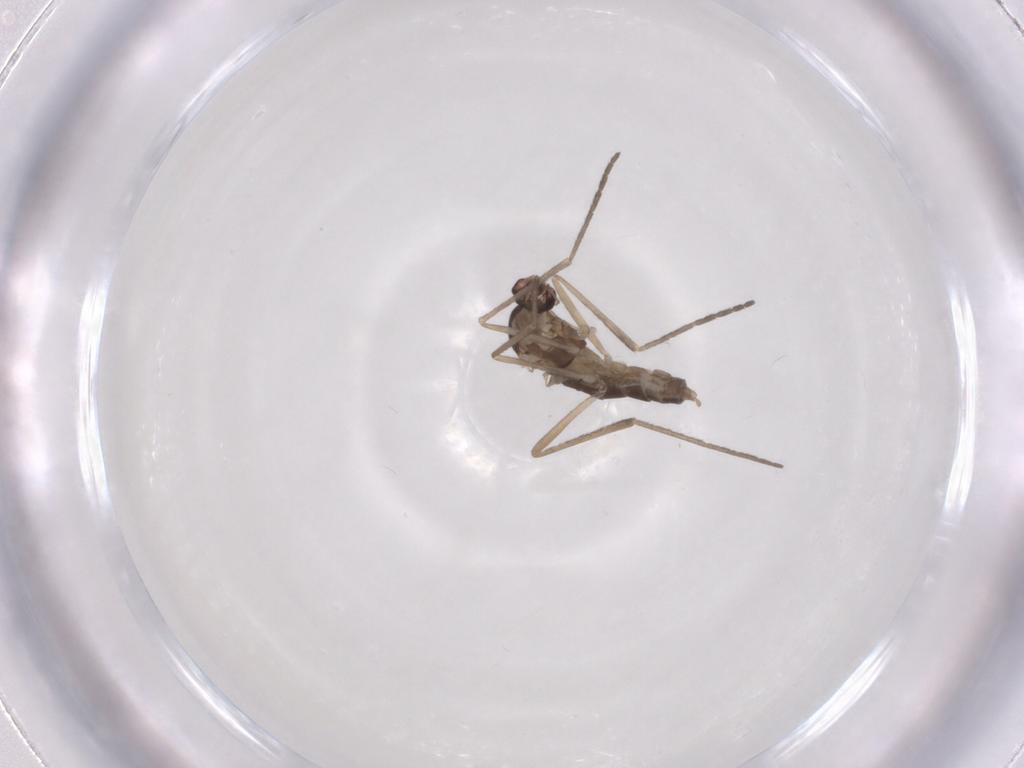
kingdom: Animalia
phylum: Arthropoda
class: Insecta
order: Diptera
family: Cecidomyiidae
